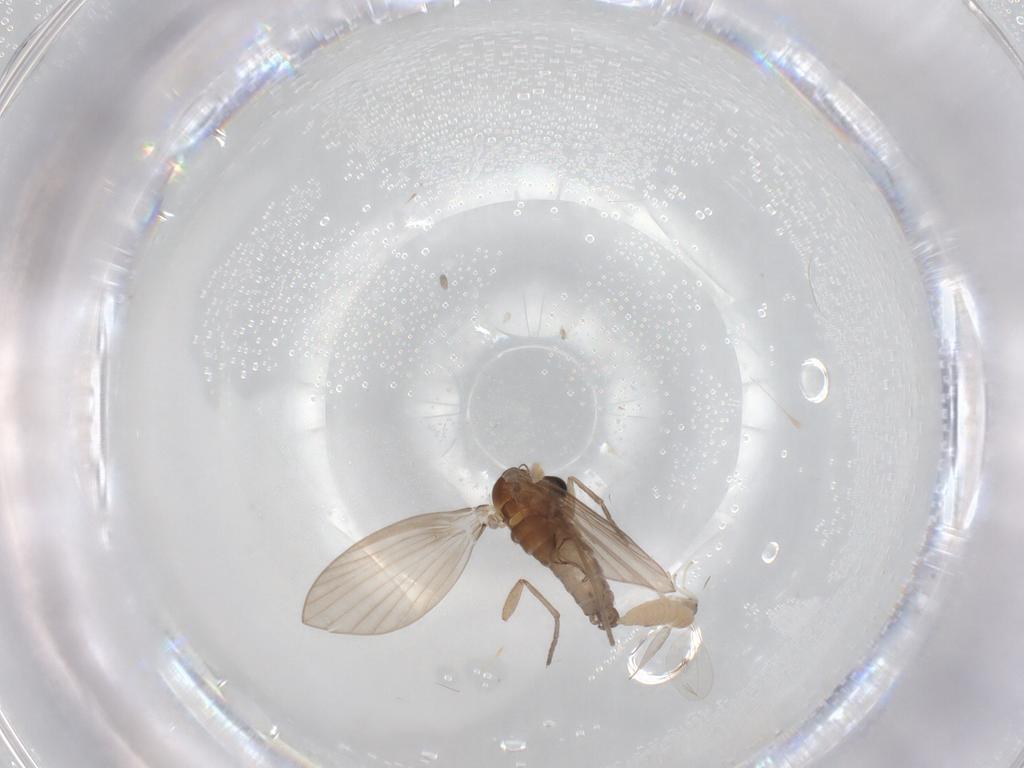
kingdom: Animalia
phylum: Arthropoda
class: Insecta
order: Diptera
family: Cecidomyiidae
